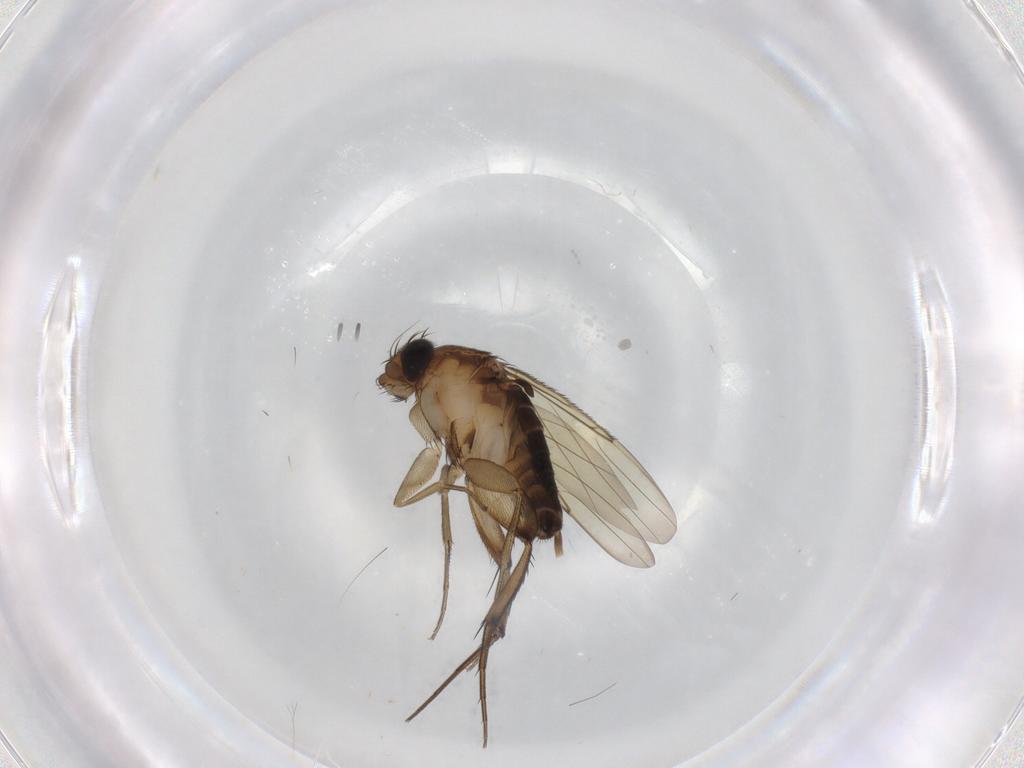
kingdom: Animalia
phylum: Arthropoda
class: Insecta
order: Diptera
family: Phoridae
